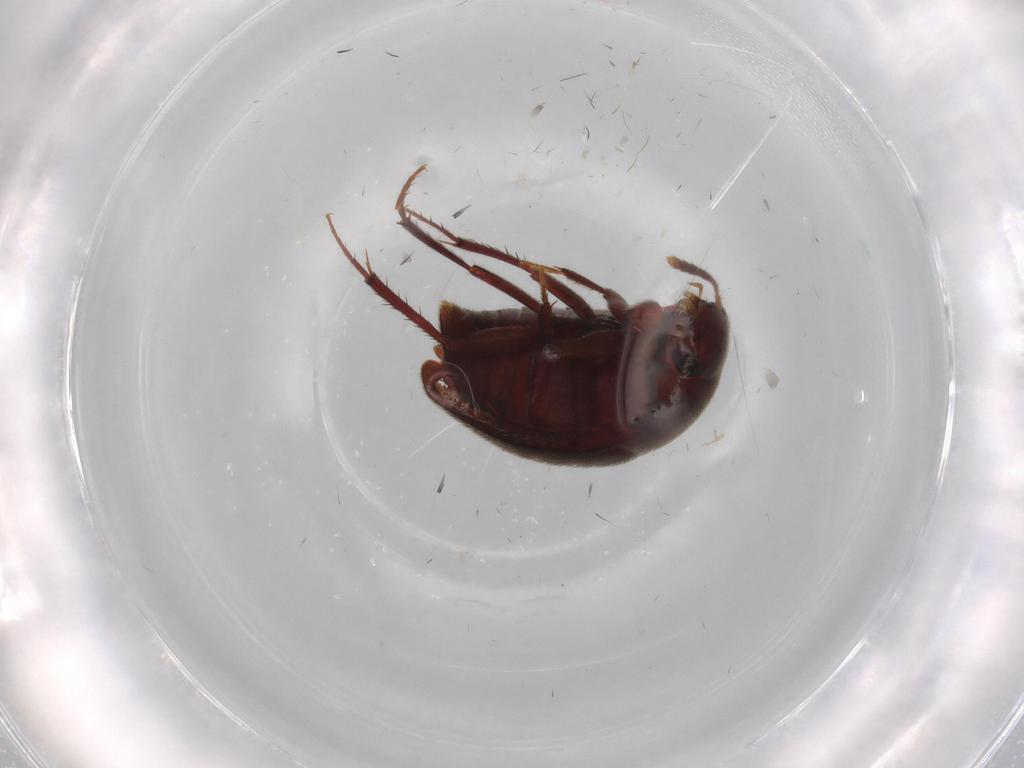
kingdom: Animalia
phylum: Arthropoda
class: Insecta
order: Coleoptera
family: Chrysomelidae
